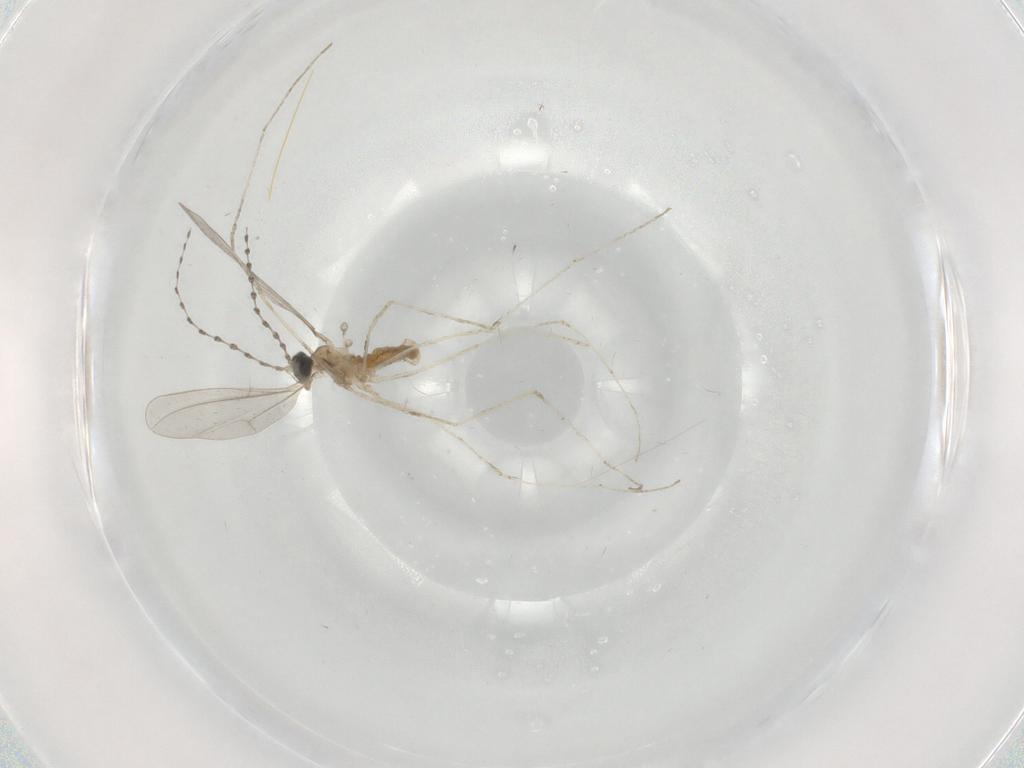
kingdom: Animalia
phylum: Arthropoda
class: Insecta
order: Diptera
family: Cecidomyiidae
